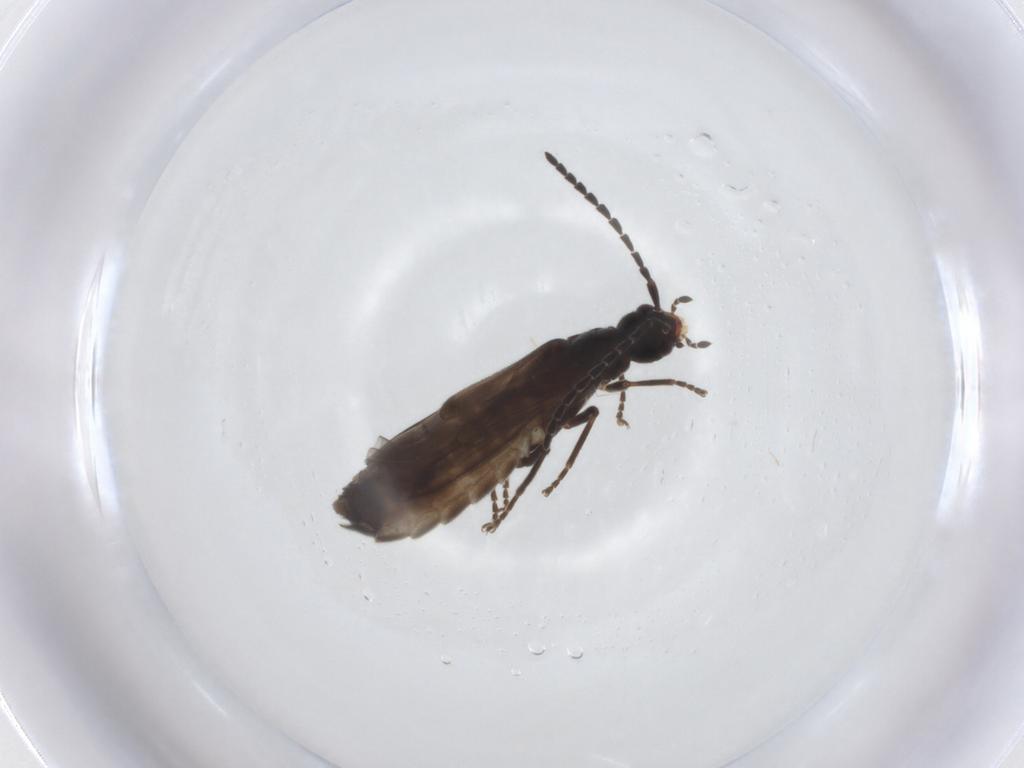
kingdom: Animalia
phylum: Arthropoda
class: Insecta
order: Coleoptera
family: Cantharidae
